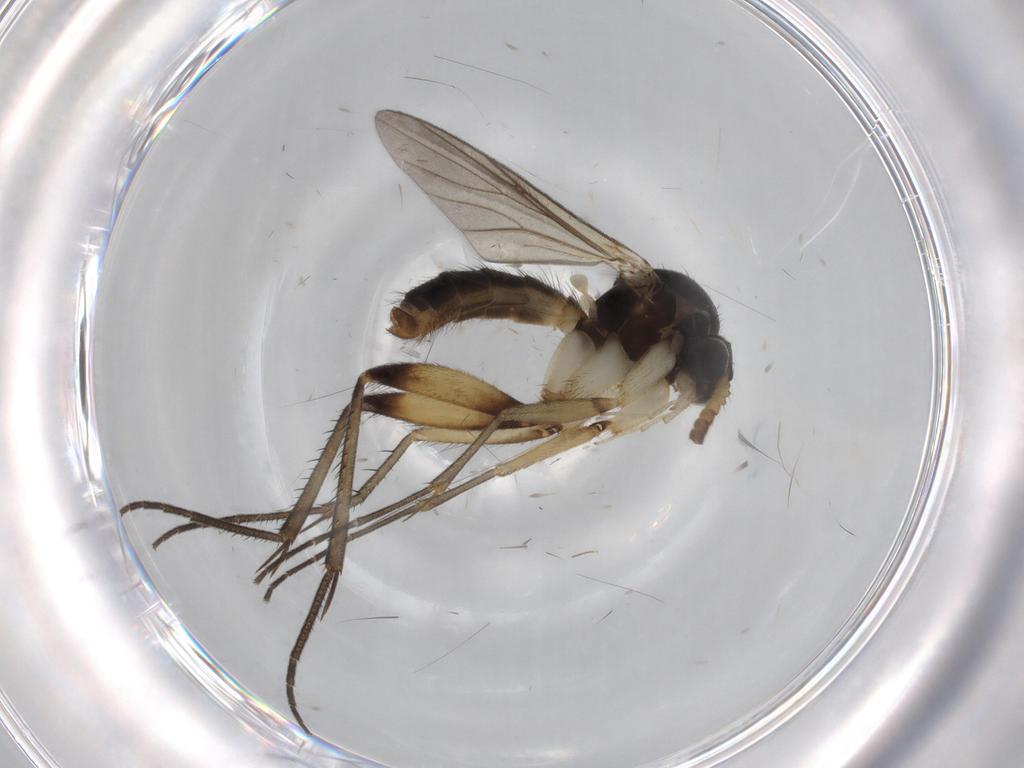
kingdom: Animalia
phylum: Arthropoda
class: Insecta
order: Diptera
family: Mycetophilidae
